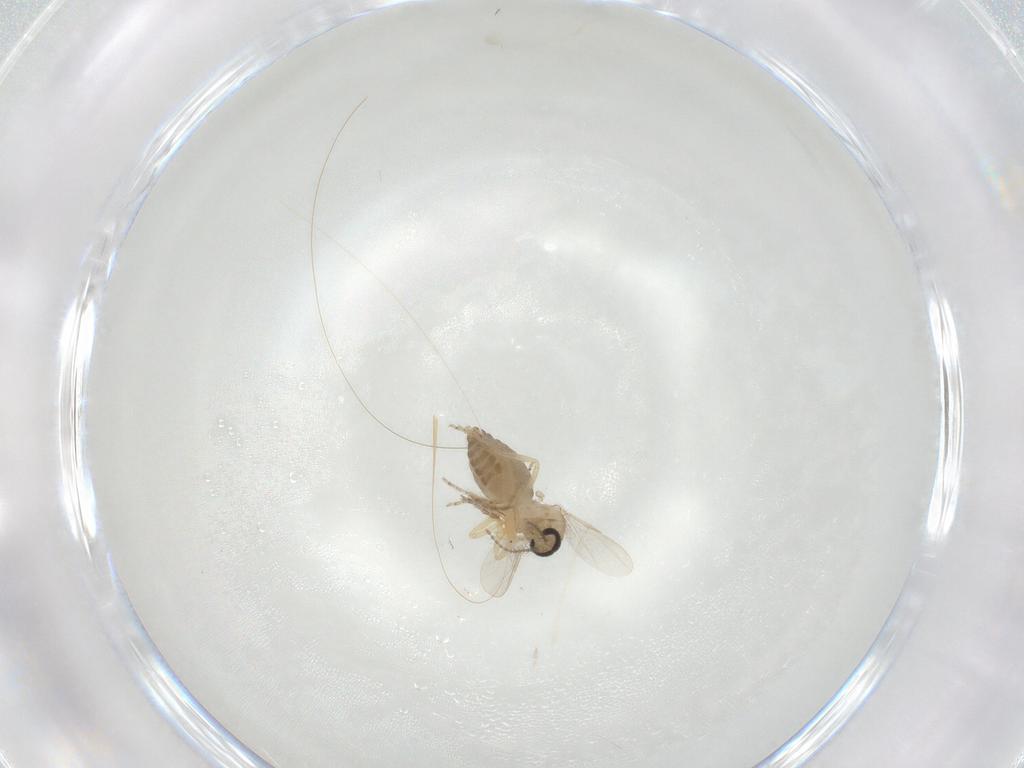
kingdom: Animalia
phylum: Arthropoda
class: Insecta
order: Diptera
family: Ceratopogonidae
